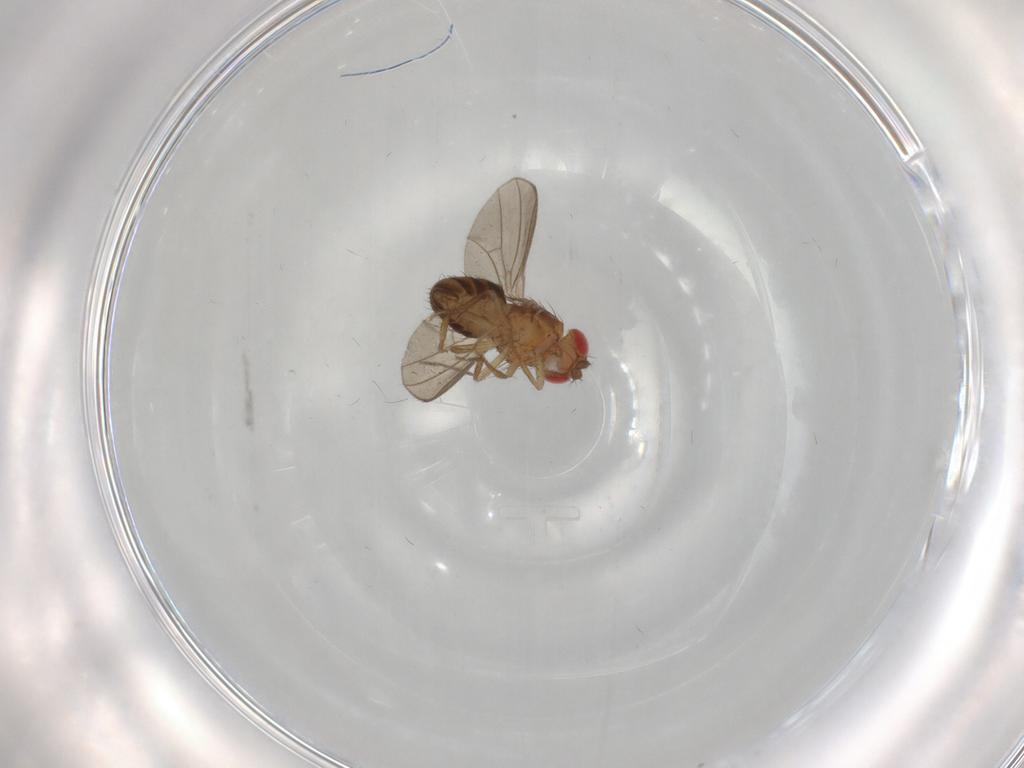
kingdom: Animalia
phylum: Arthropoda
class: Insecta
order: Diptera
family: Drosophilidae
